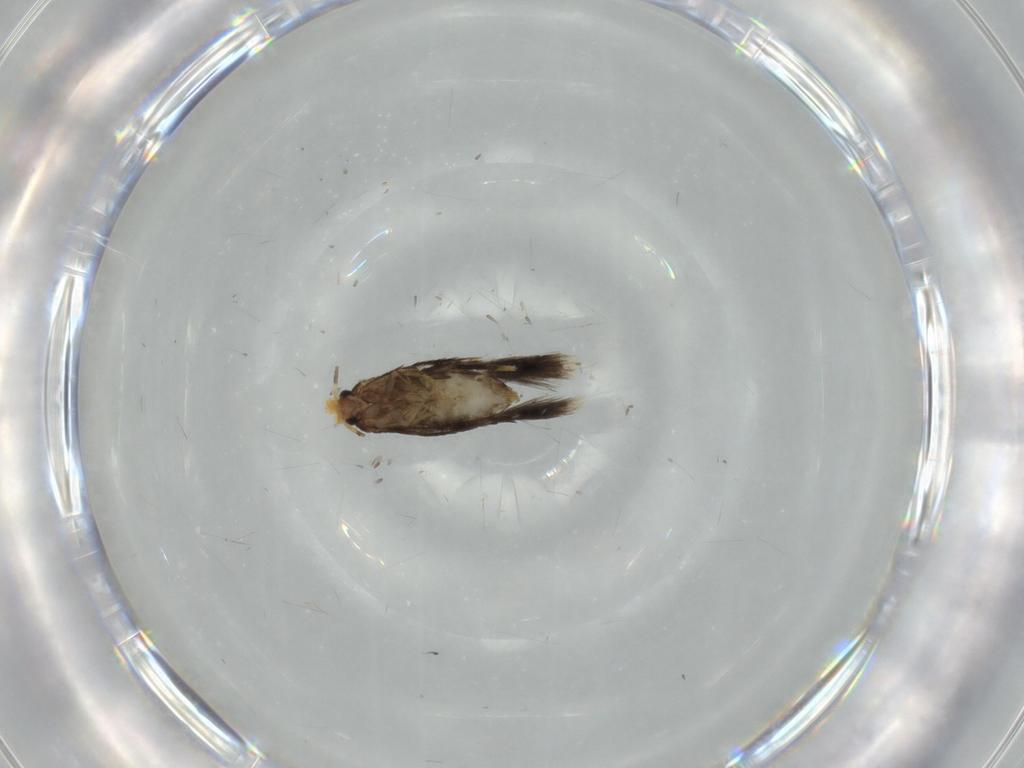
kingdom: Animalia
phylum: Arthropoda
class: Insecta
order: Lepidoptera
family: Nepticulidae
